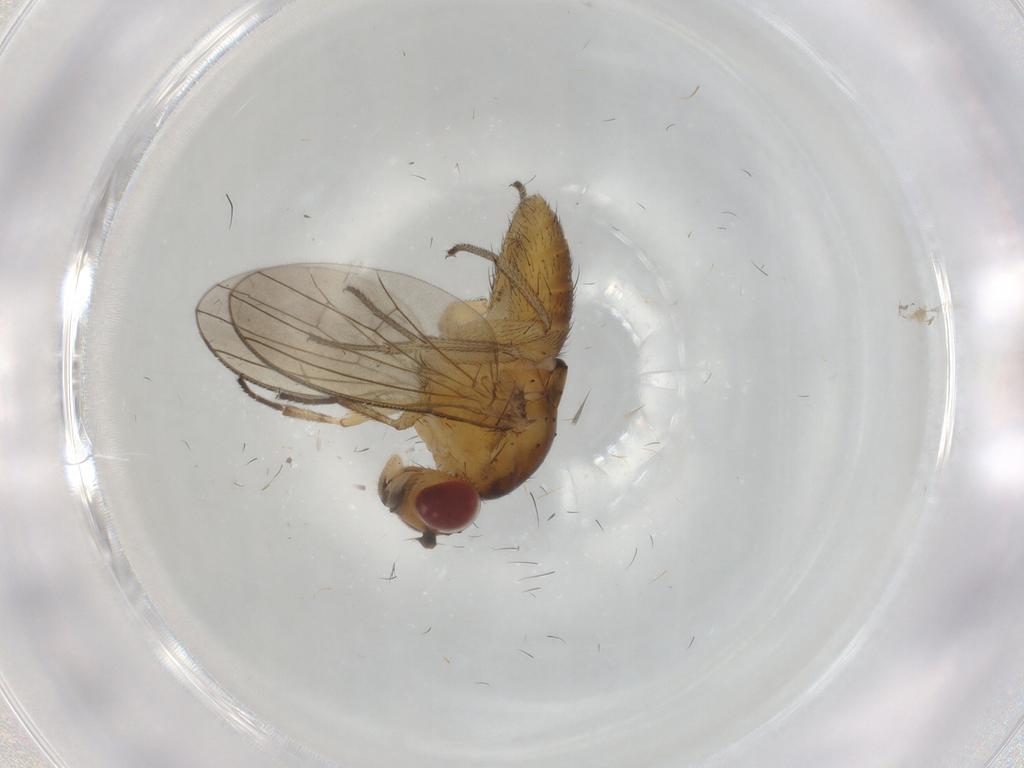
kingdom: Animalia
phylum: Arthropoda
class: Insecta
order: Diptera
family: Lauxaniidae
